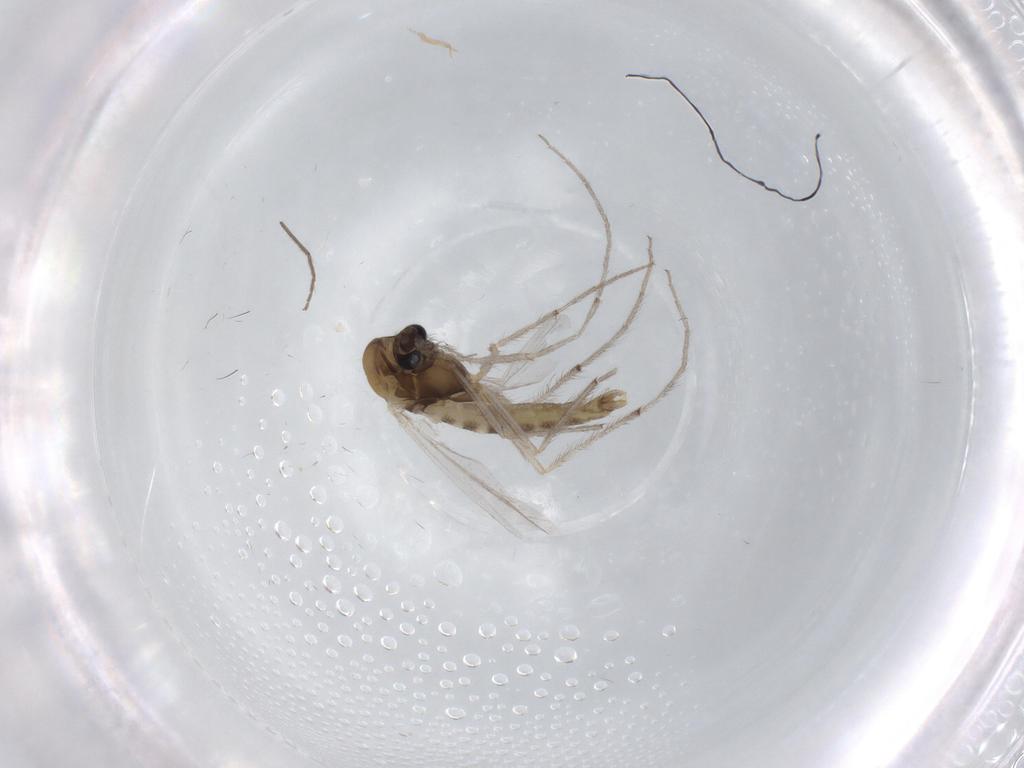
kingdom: Animalia
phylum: Arthropoda
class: Insecta
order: Diptera
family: Chironomidae
